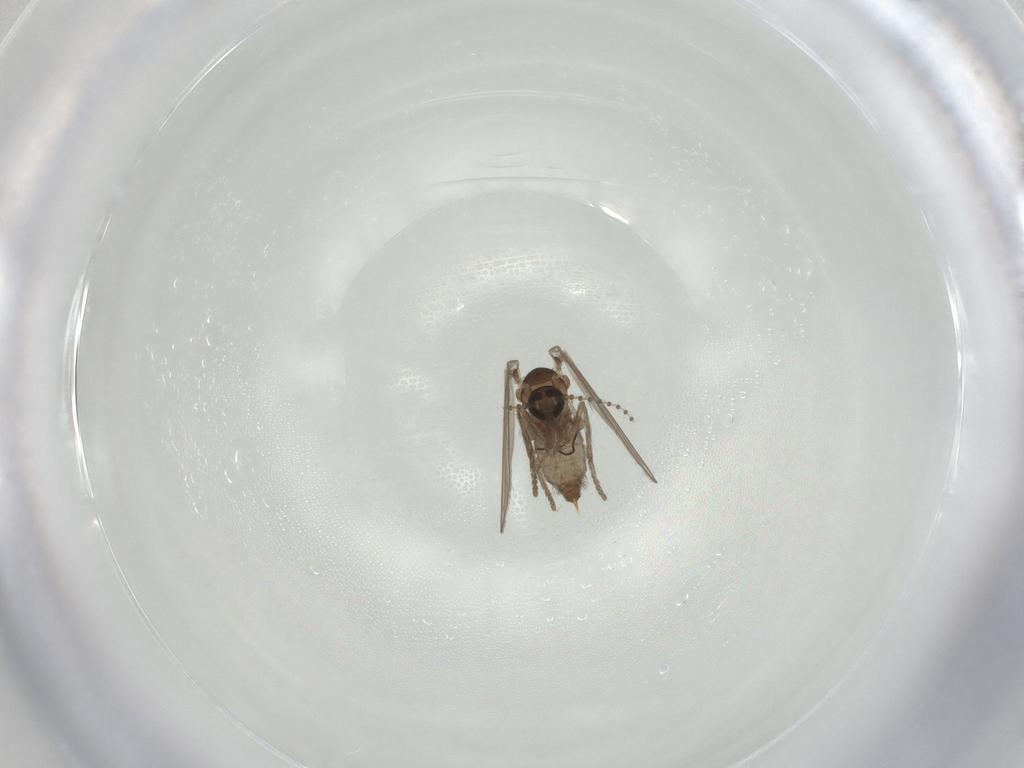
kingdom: Animalia
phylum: Arthropoda
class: Insecta
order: Diptera
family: Psychodidae
